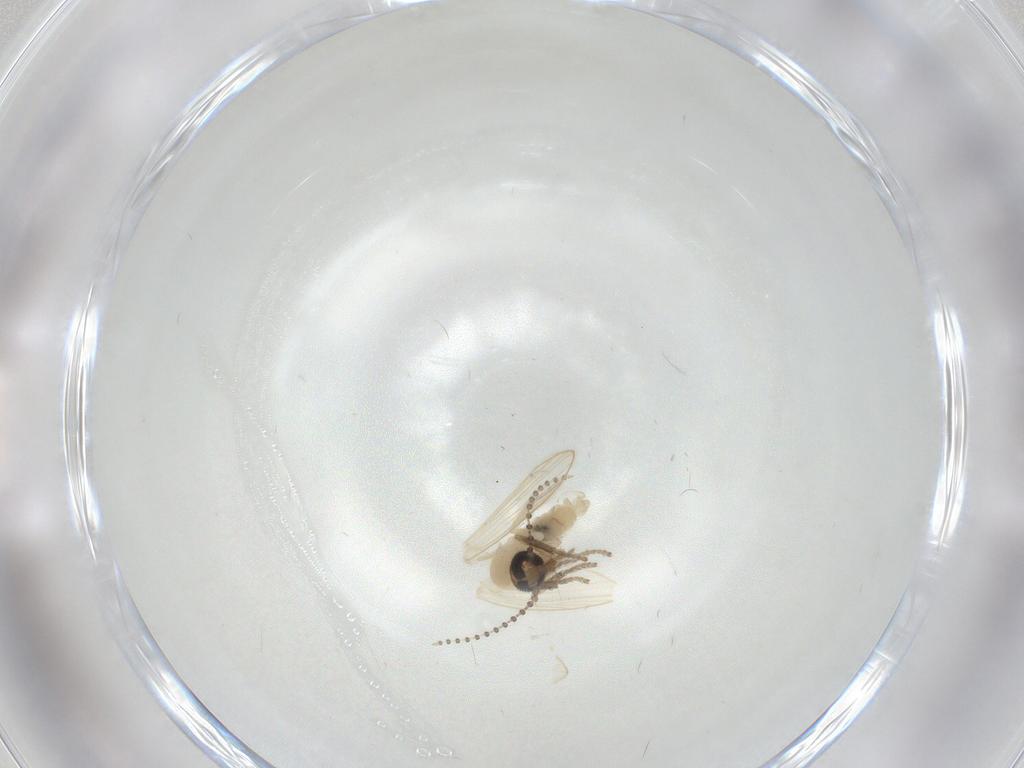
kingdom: Animalia
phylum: Arthropoda
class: Insecta
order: Diptera
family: Psychodidae
